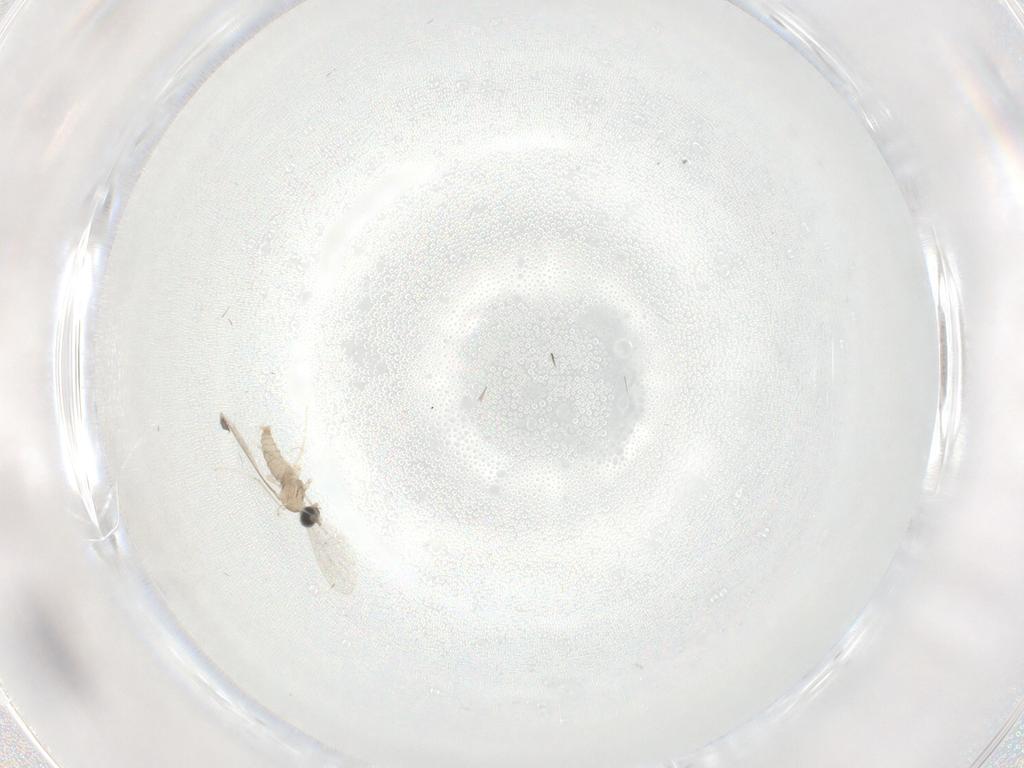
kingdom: Animalia
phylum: Arthropoda
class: Insecta
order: Diptera
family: Cecidomyiidae
